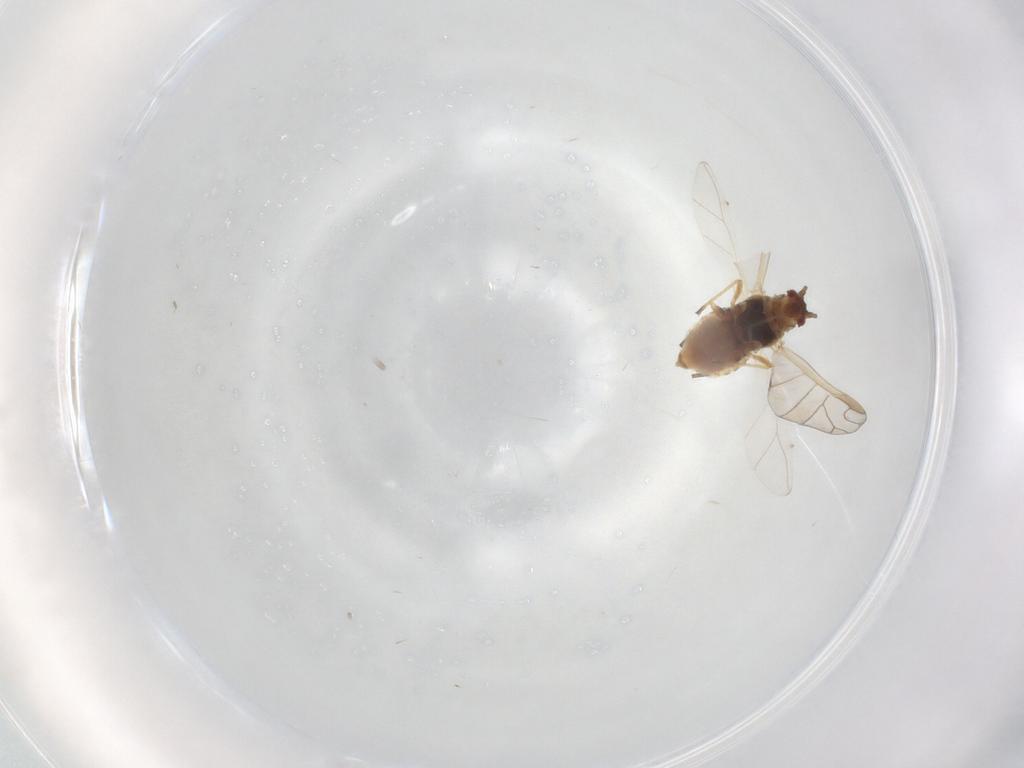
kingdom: Animalia
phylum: Arthropoda
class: Insecta
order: Hemiptera
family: Aphididae
